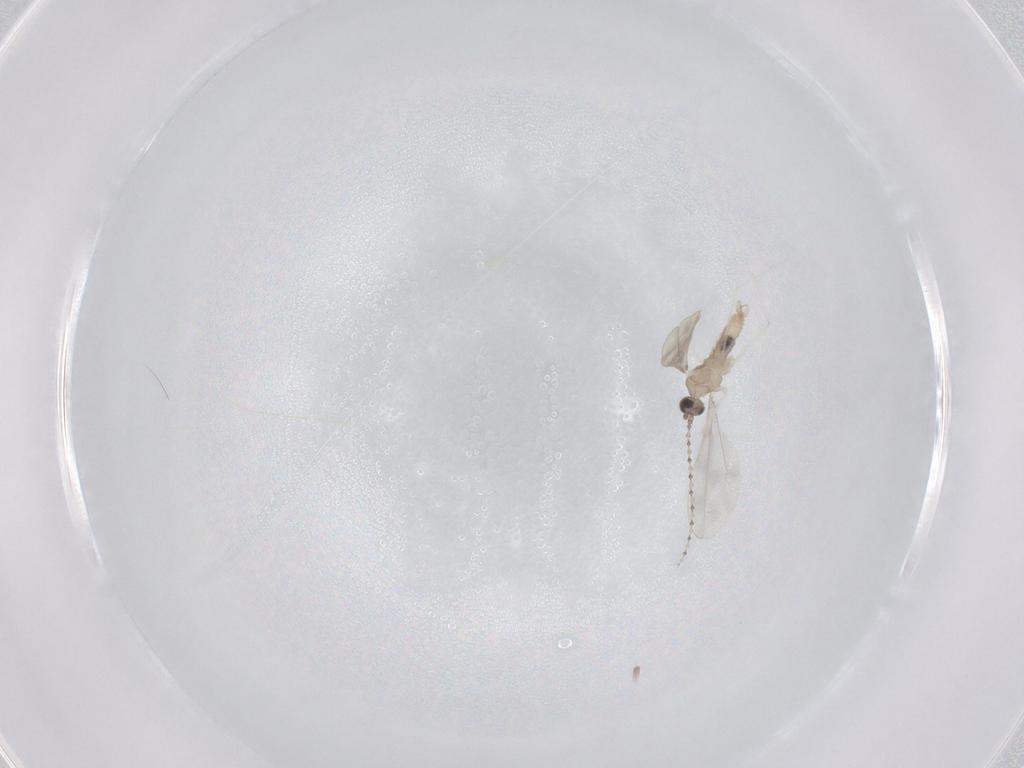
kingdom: Animalia
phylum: Arthropoda
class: Insecta
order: Diptera
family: Cecidomyiidae
